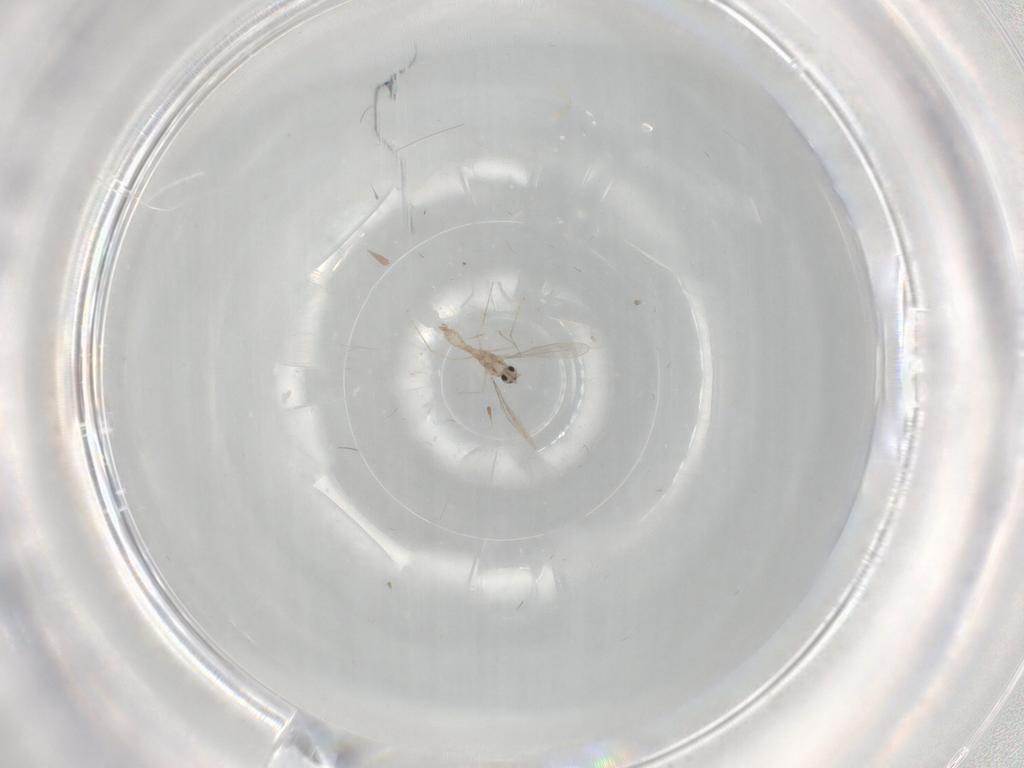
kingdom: Animalia
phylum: Arthropoda
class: Insecta
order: Diptera
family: Cecidomyiidae
